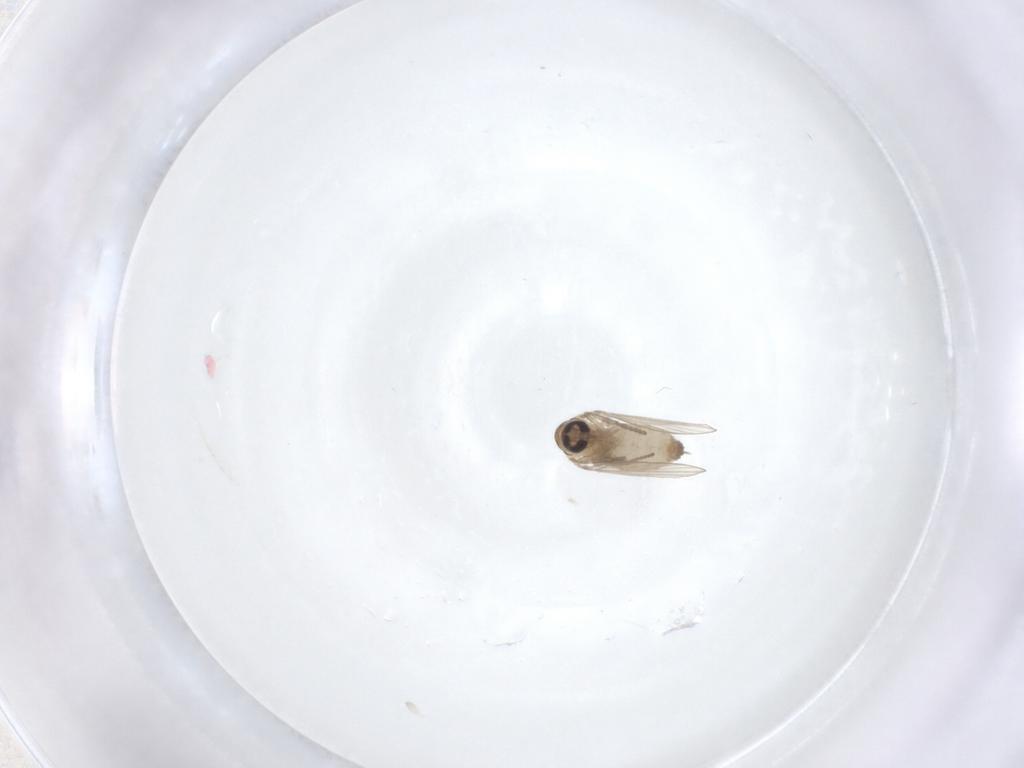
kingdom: Animalia
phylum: Arthropoda
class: Insecta
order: Diptera
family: Psychodidae
